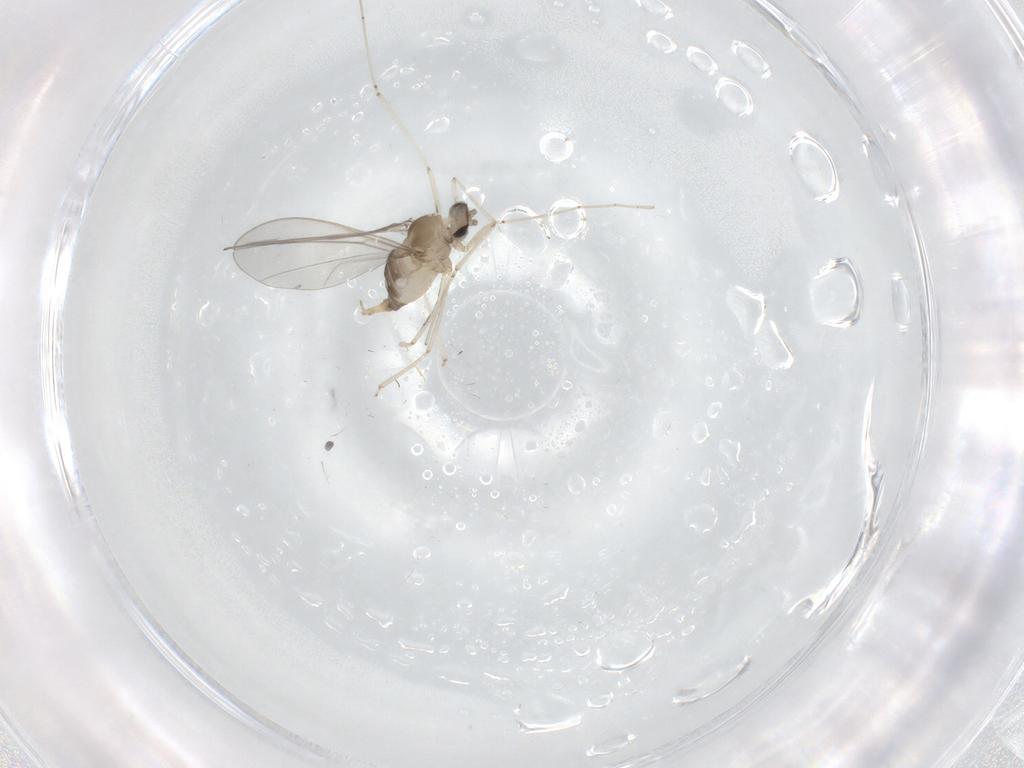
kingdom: Animalia
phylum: Arthropoda
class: Insecta
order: Diptera
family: Cecidomyiidae
